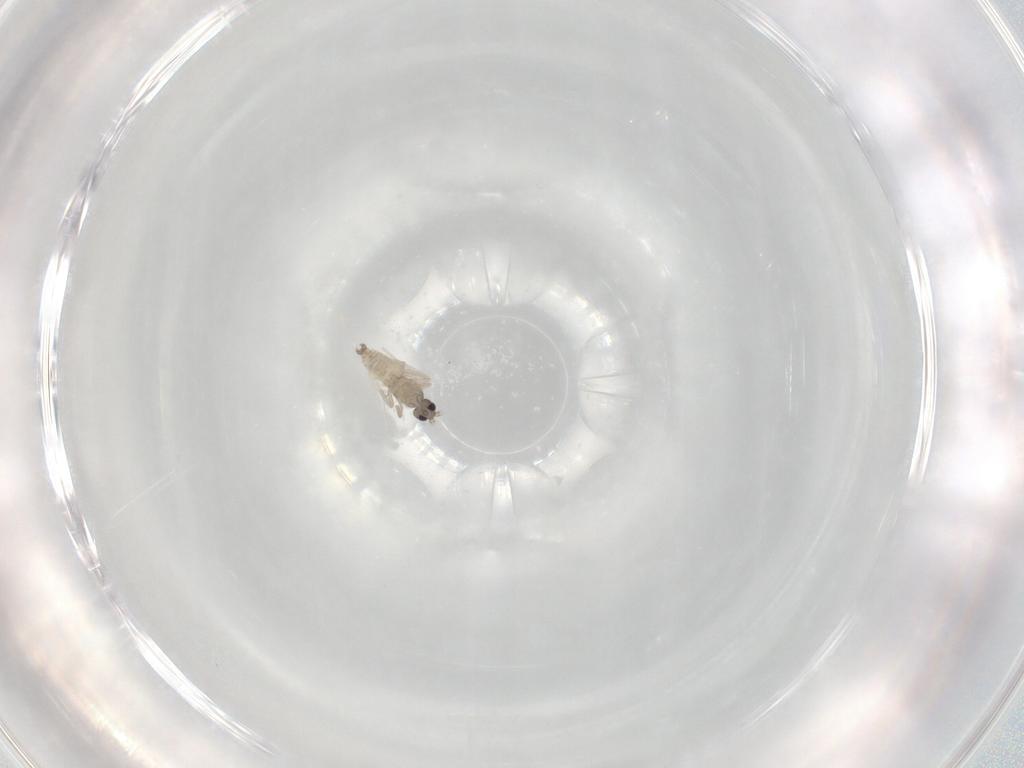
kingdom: Animalia
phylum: Arthropoda
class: Insecta
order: Diptera
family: Cecidomyiidae
